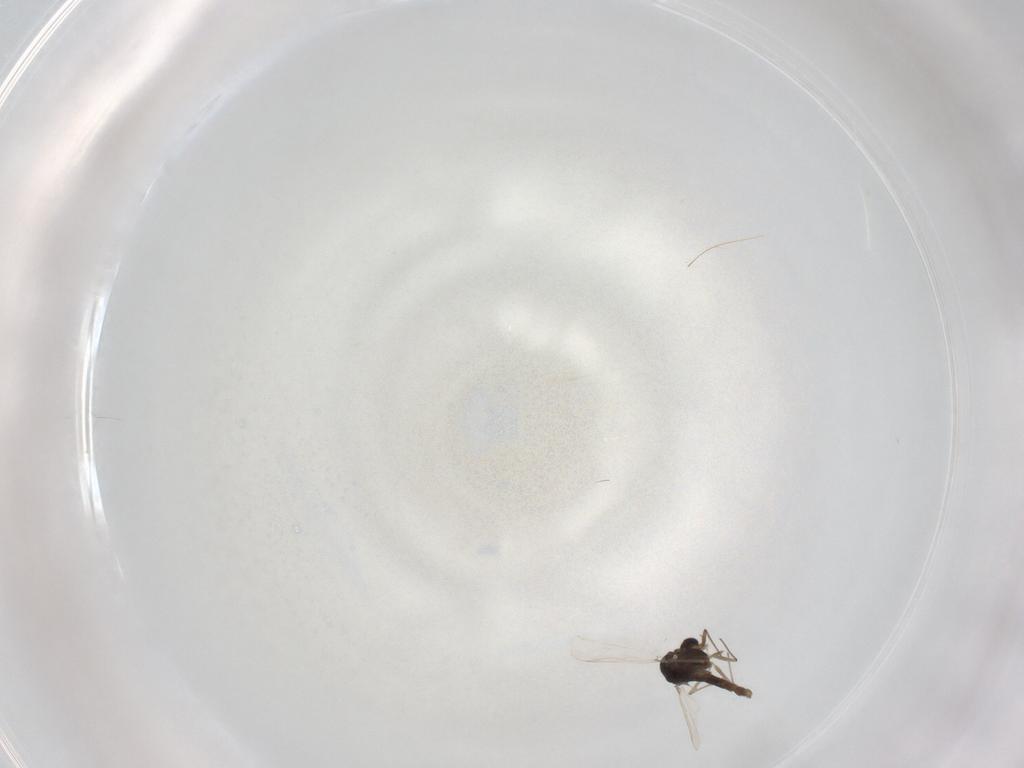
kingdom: Animalia
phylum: Arthropoda
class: Insecta
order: Diptera
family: Chironomidae
